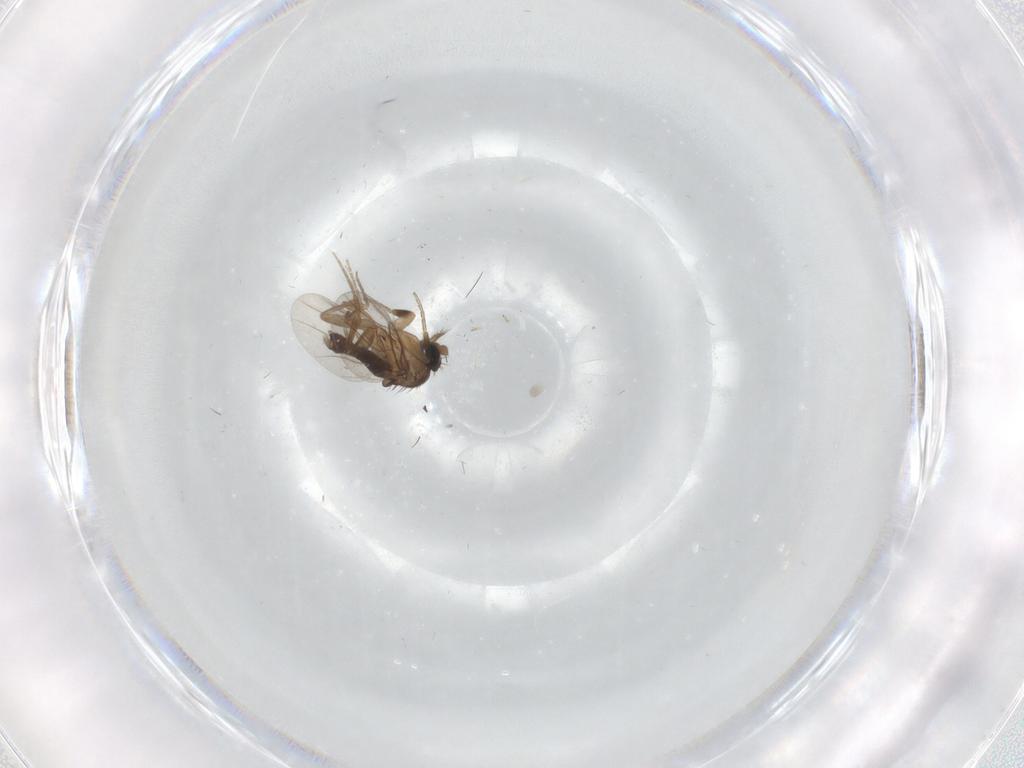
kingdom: Animalia
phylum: Arthropoda
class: Insecta
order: Diptera
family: Phoridae
